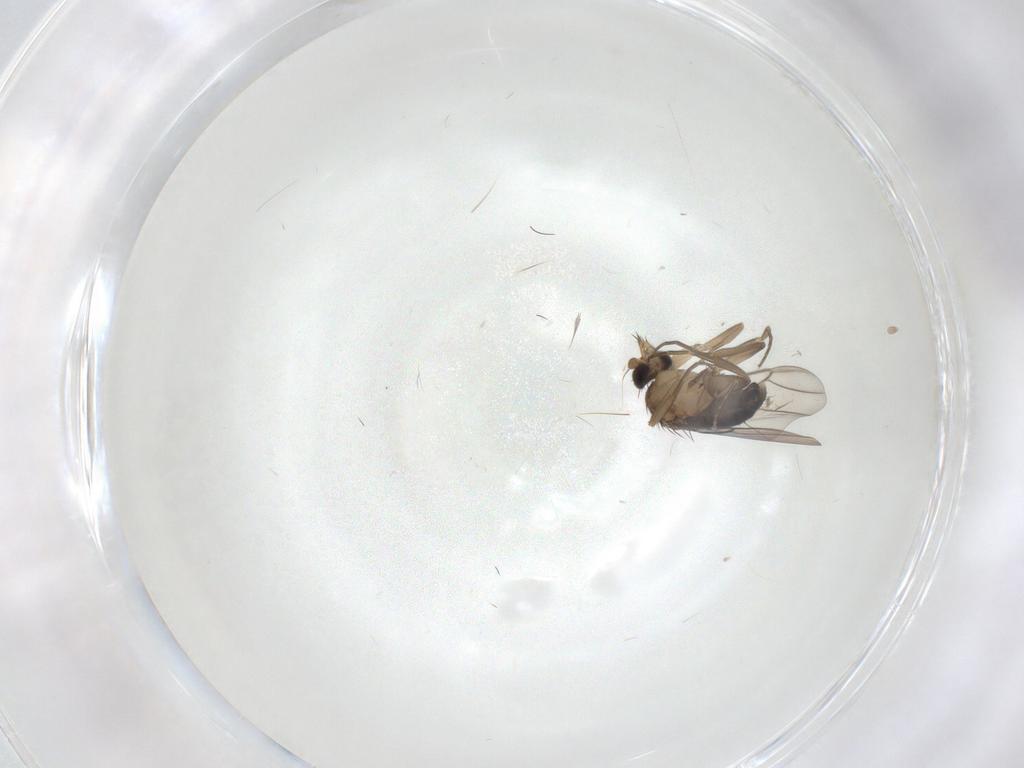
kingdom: Animalia
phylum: Arthropoda
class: Insecta
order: Diptera
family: Phoridae
